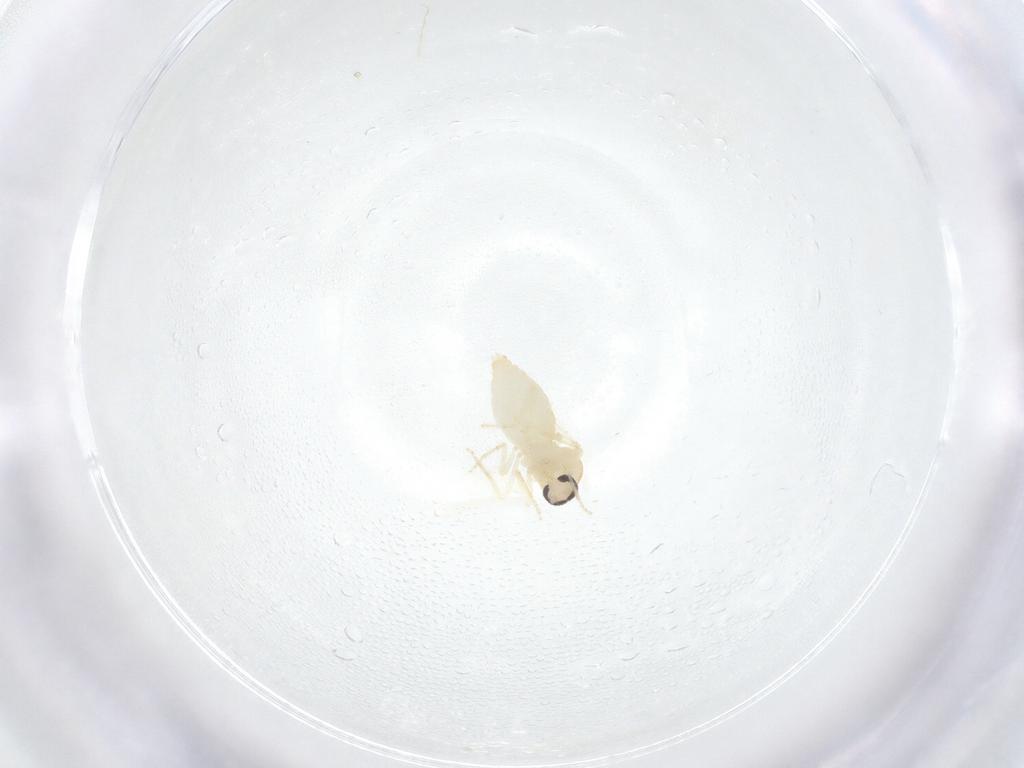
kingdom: Animalia
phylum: Arthropoda
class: Insecta
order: Diptera
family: Ceratopogonidae
